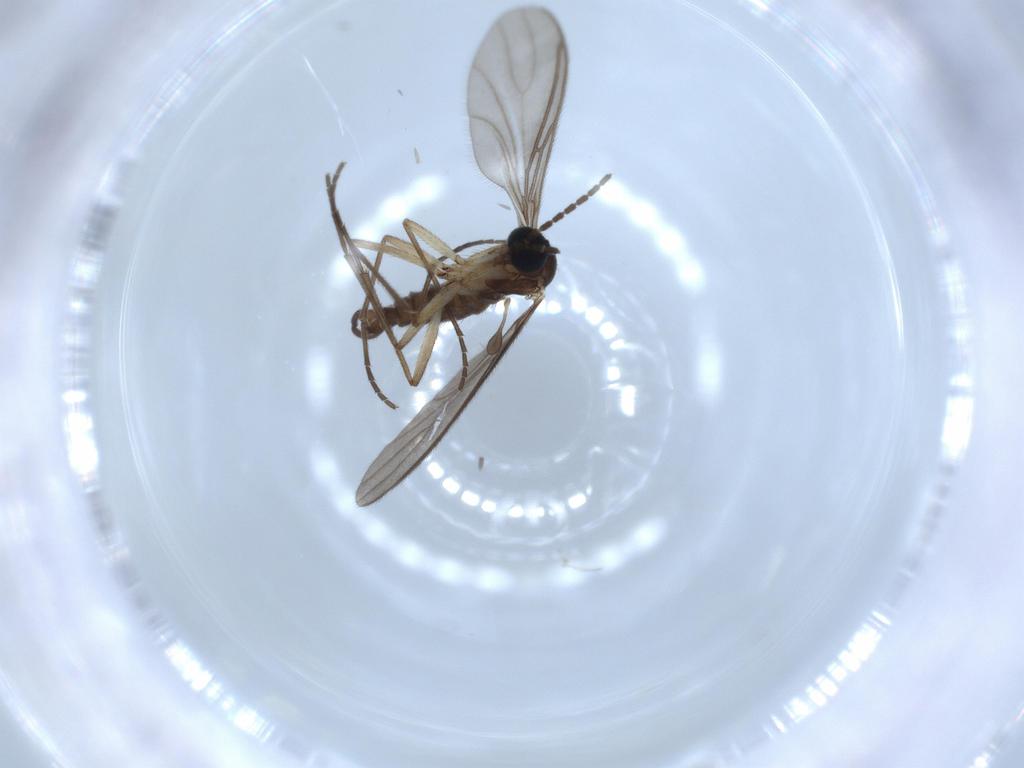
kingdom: Animalia
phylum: Arthropoda
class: Insecta
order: Diptera
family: Sciaridae
